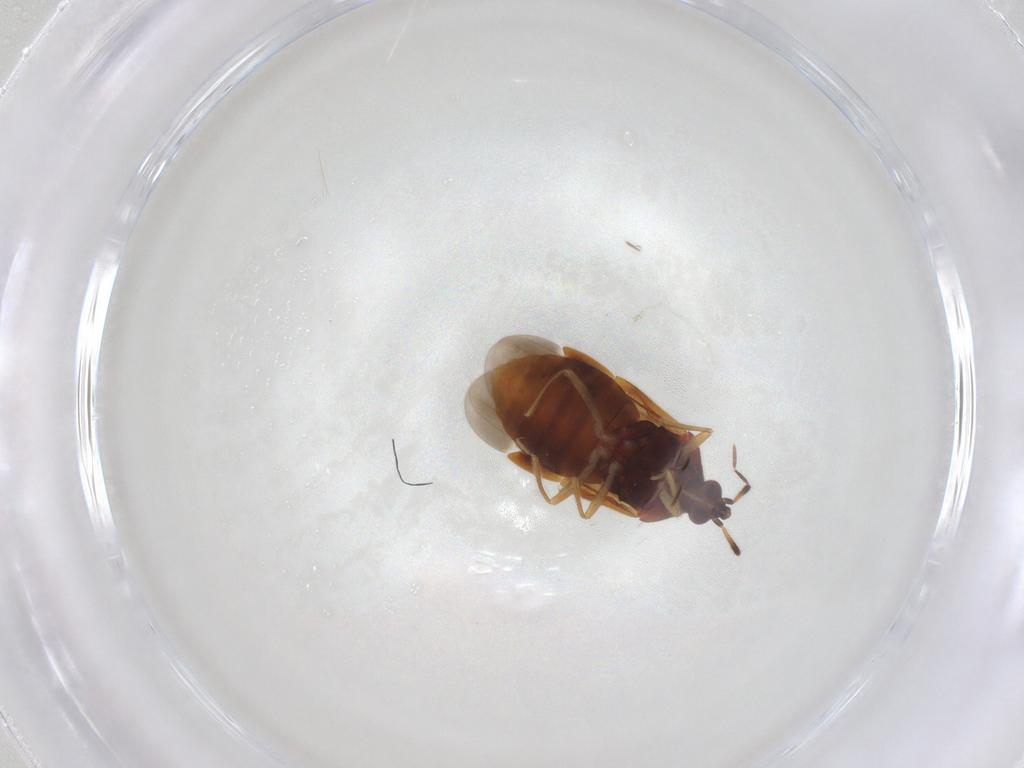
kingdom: Animalia
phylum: Arthropoda
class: Insecta
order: Hemiptera
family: Anthocoridae
